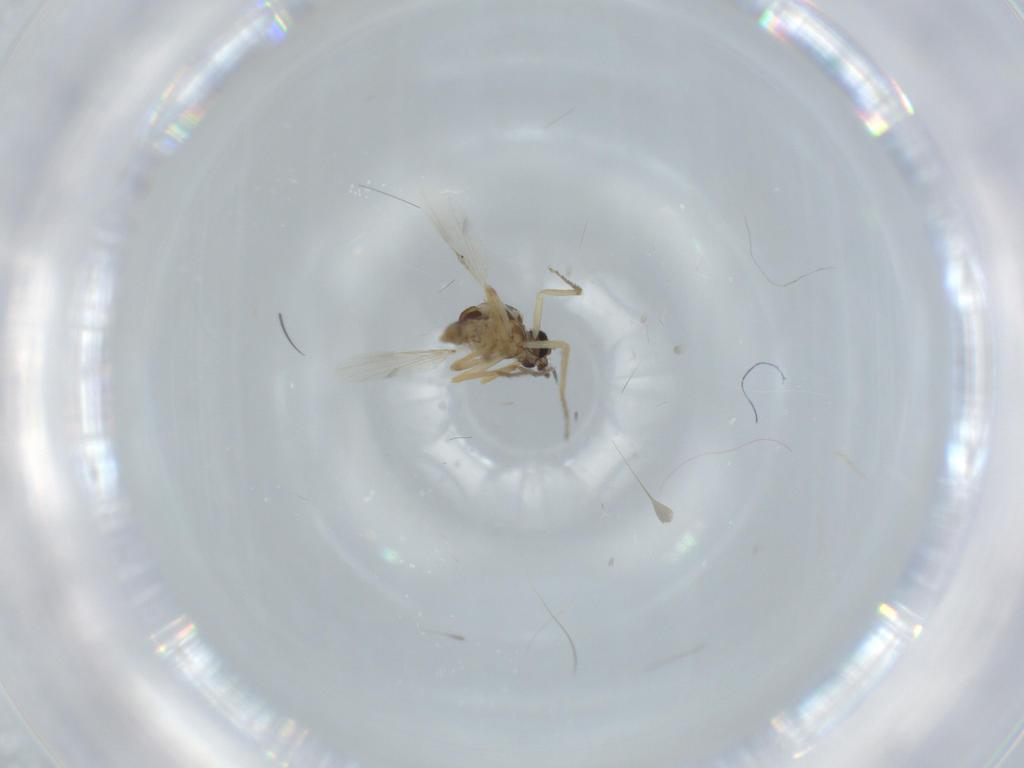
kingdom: Animalia
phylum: Arthropoda
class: Insecta
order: Diptera
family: Ceratopogonidae
